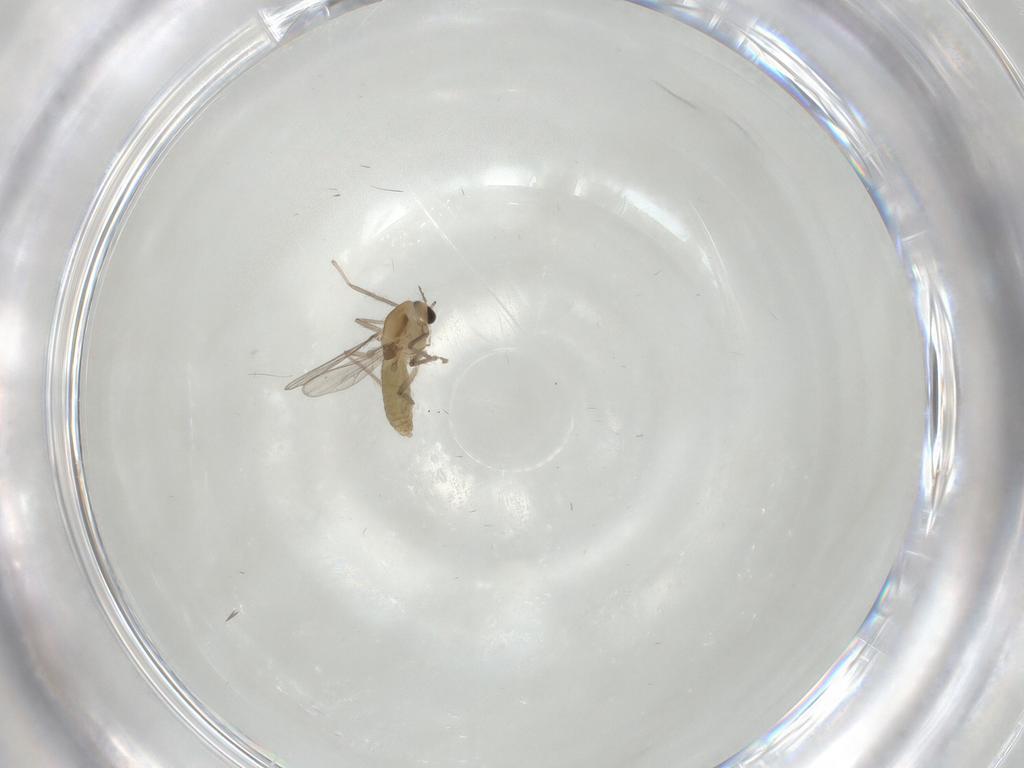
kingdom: Animalia
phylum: Arthropoda
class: Insecta
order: Diptera
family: Chironomidae
